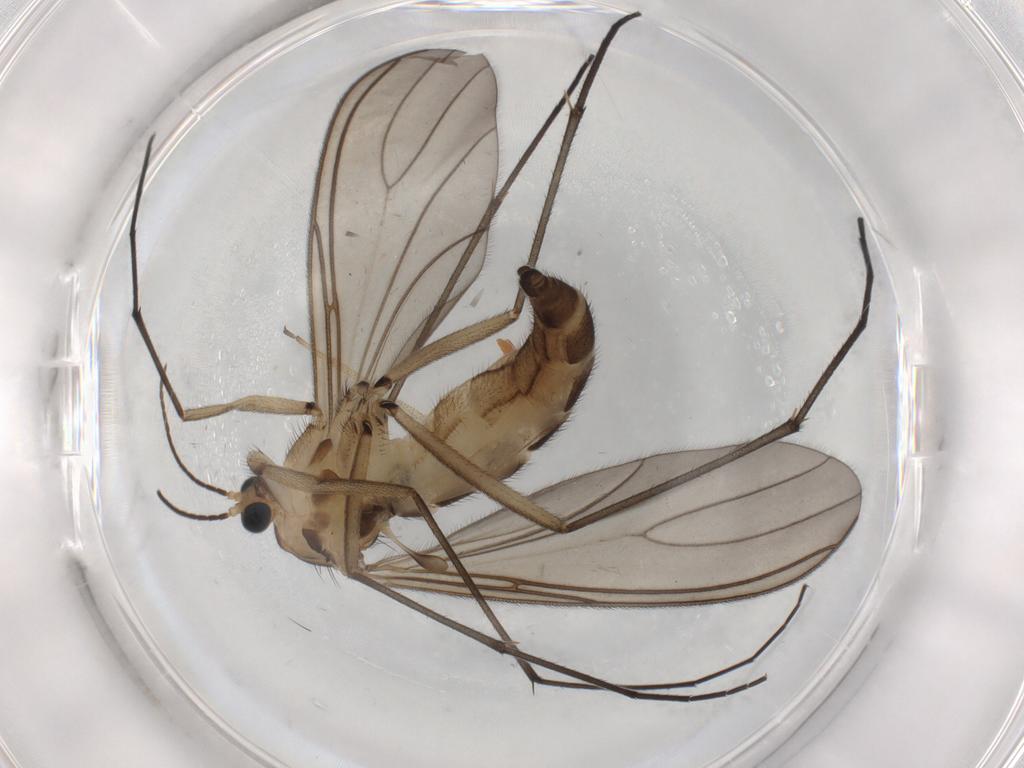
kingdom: Animalia
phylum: Arthropoda
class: Insecta
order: Diptera
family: Sciaridae
